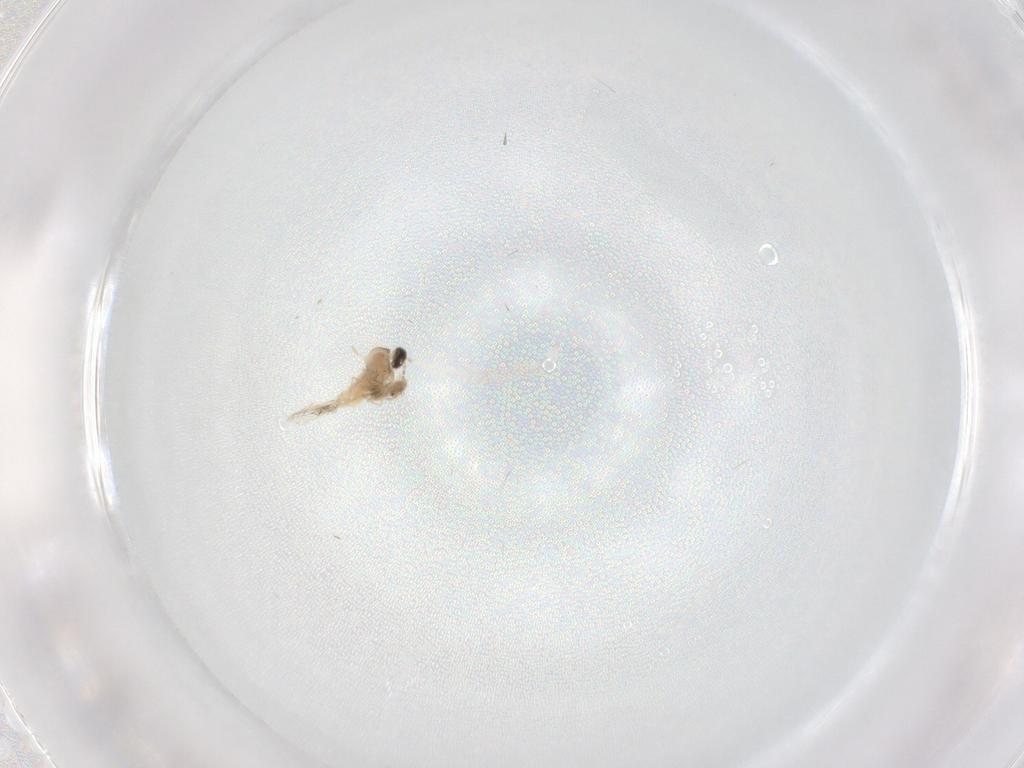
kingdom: Animalia
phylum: Arthropoda
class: Insecta
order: Diptera
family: Cecidomyiidae
